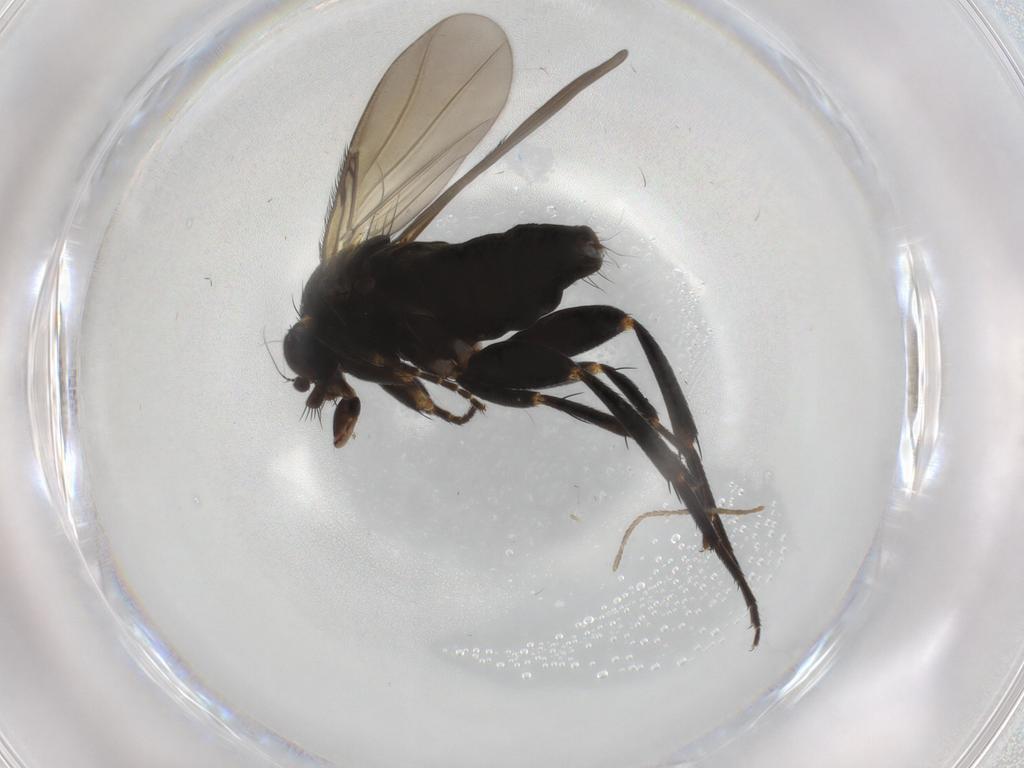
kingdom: Animalia
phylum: Arthropoda
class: Insecta
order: Diptera
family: Phoridae
